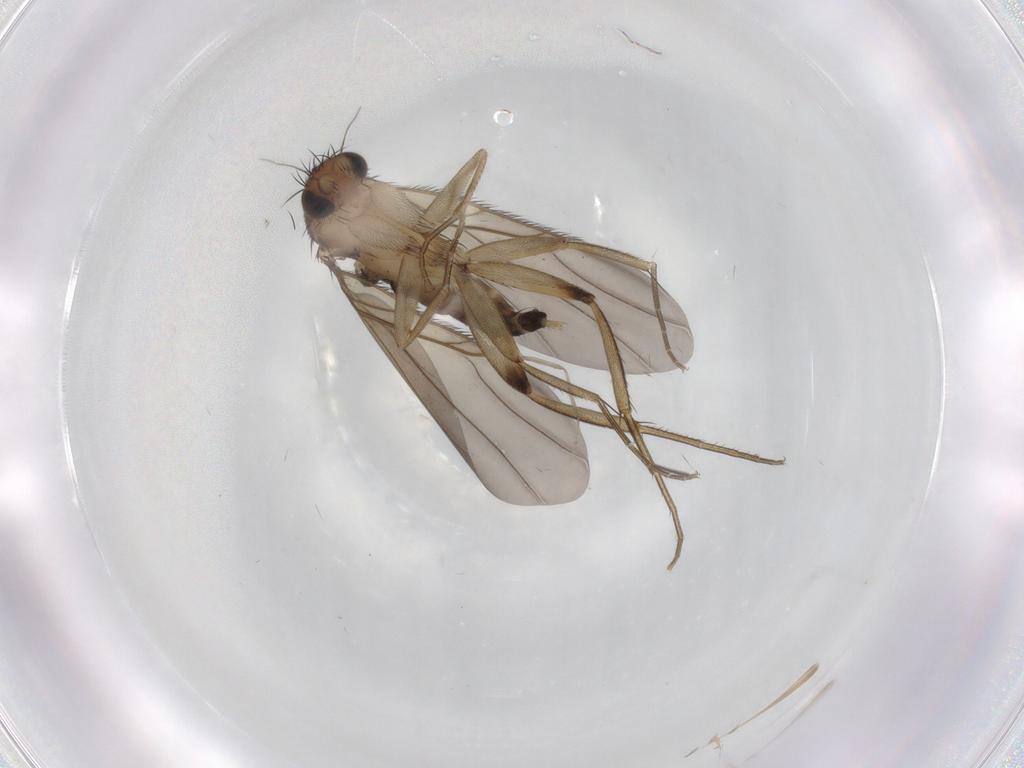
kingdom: Animalia
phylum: Arthropoda
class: Insecta
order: Diptera
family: Phoridae
